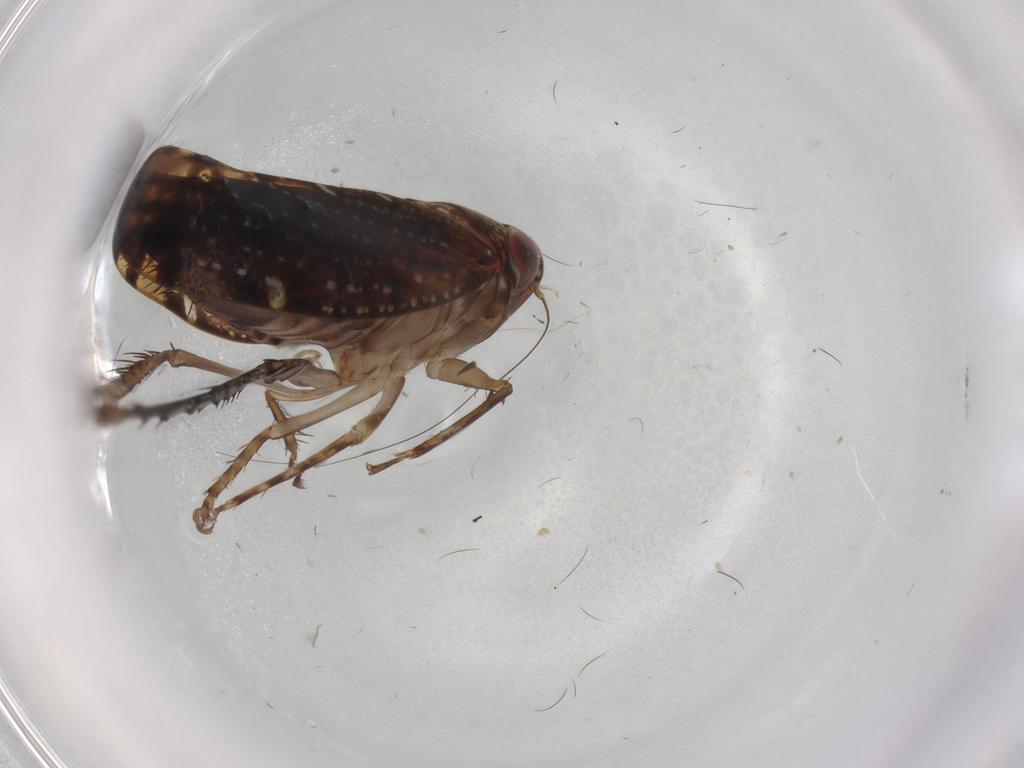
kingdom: Animalia
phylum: Arthropoda
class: Insecta
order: Hemiptera
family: Cicadellidae
